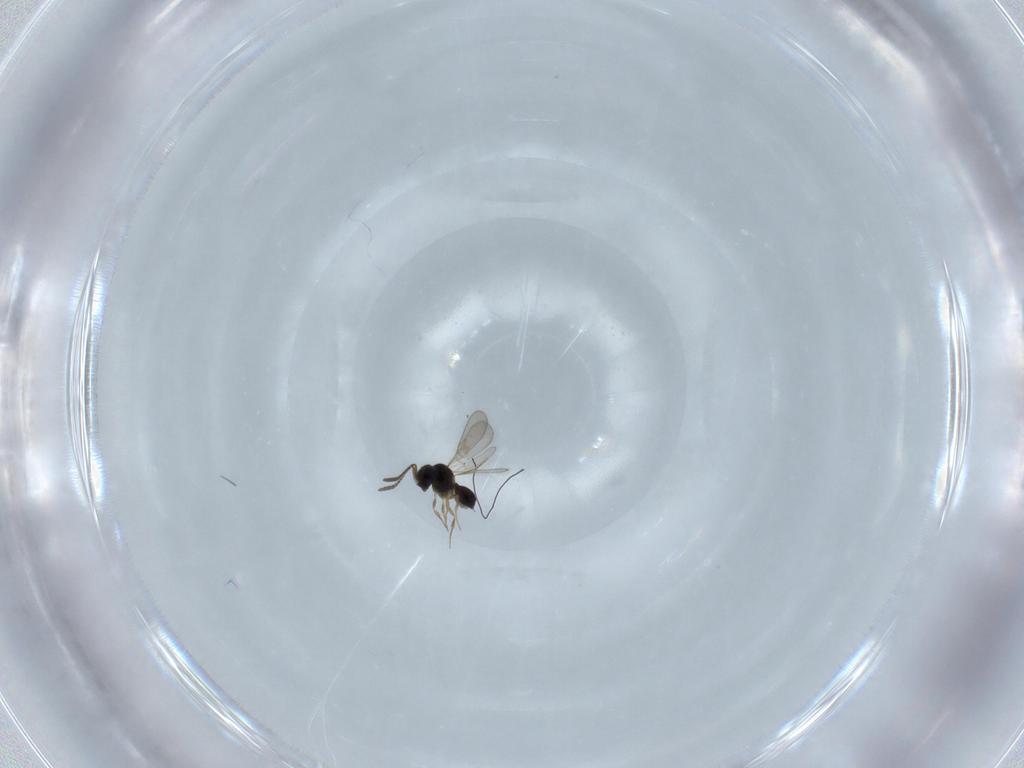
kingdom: Animalia
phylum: Arthropoda
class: Insecta
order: Hymenoptera
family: Scelionidae
